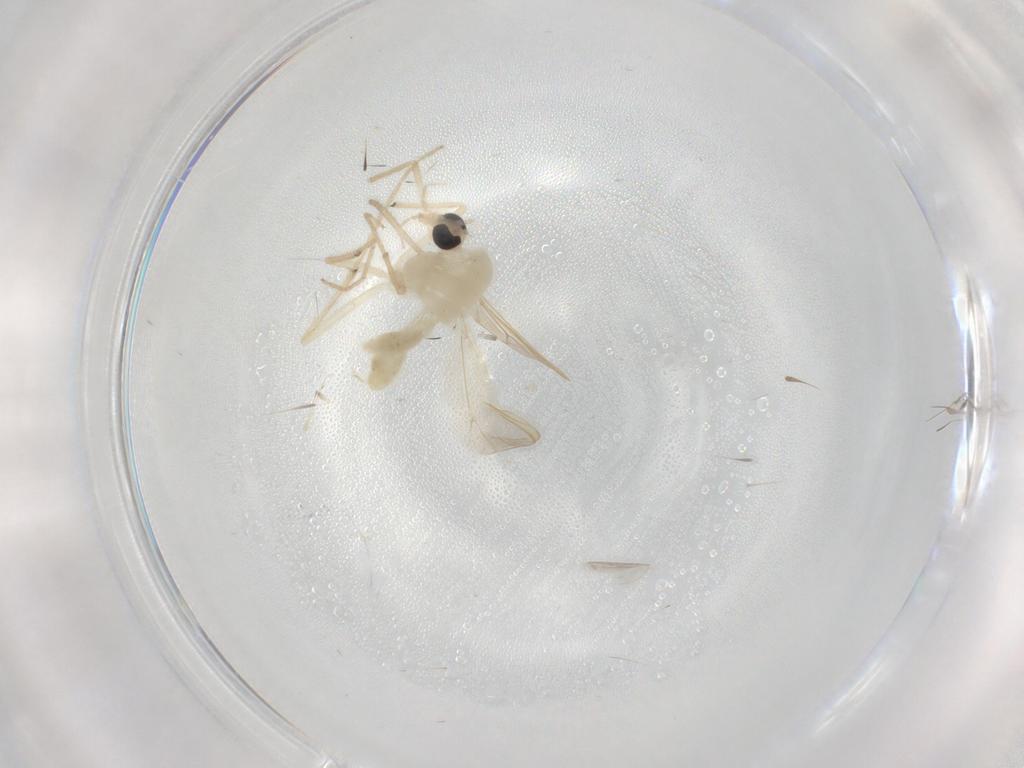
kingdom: Animalia
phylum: Arthropoda
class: Insecta
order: Diptera
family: Chironomidae
